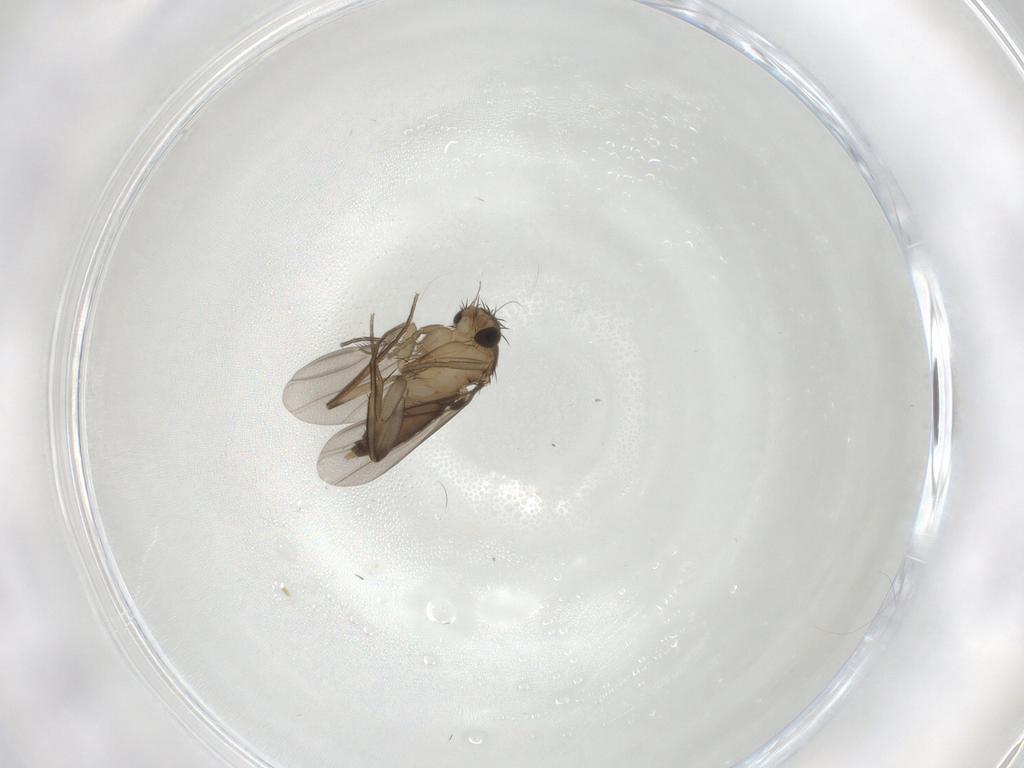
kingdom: Animalia
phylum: Arthropoda
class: Insecta
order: Diptera
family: Phoridae
